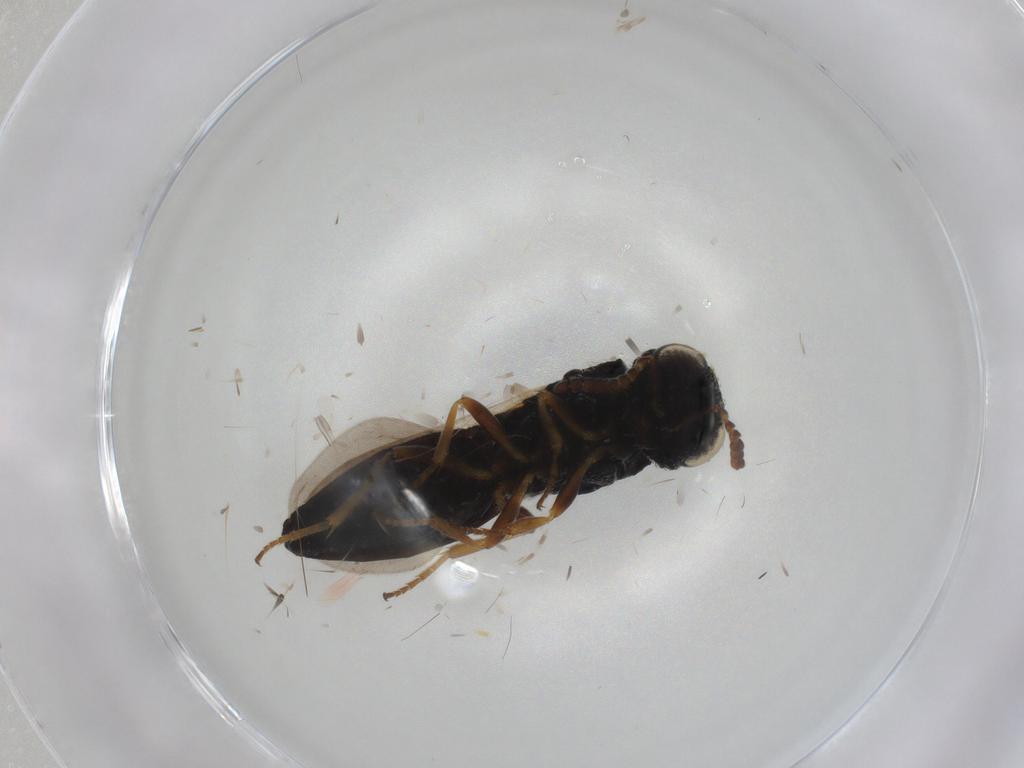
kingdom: Animalia
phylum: Arthropoda
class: Insecta
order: Hymenoptera
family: Scelionidae
